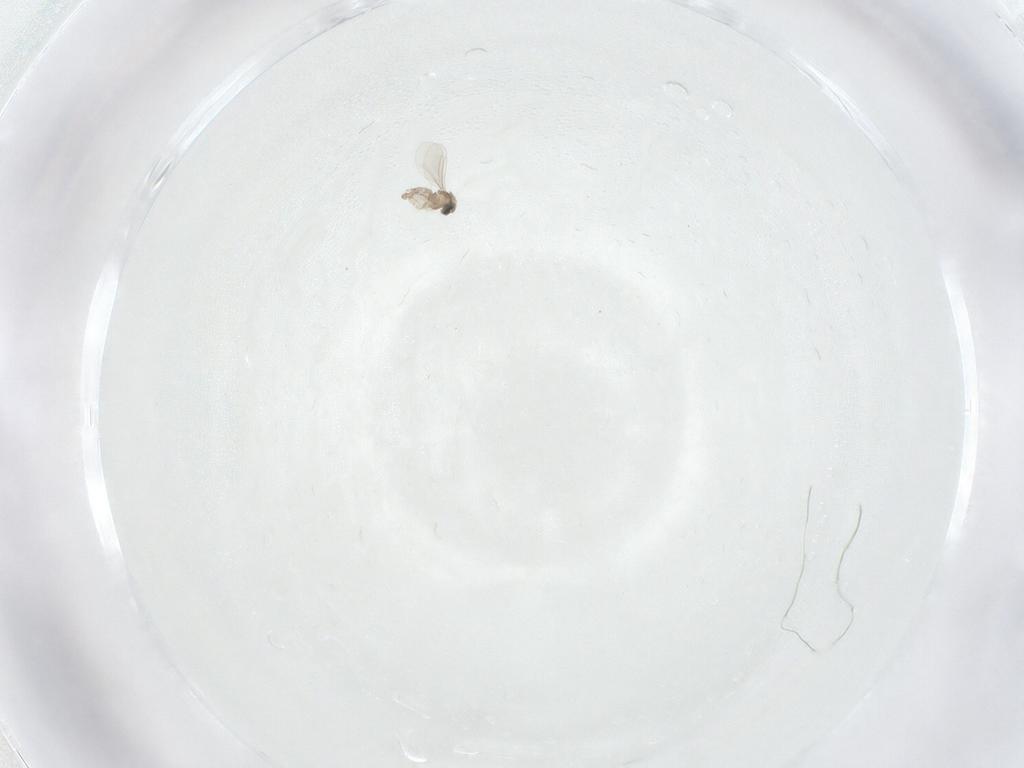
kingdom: Animalia
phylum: Arthropoda
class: Insecta
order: Diptera
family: Cecidomyiidae
